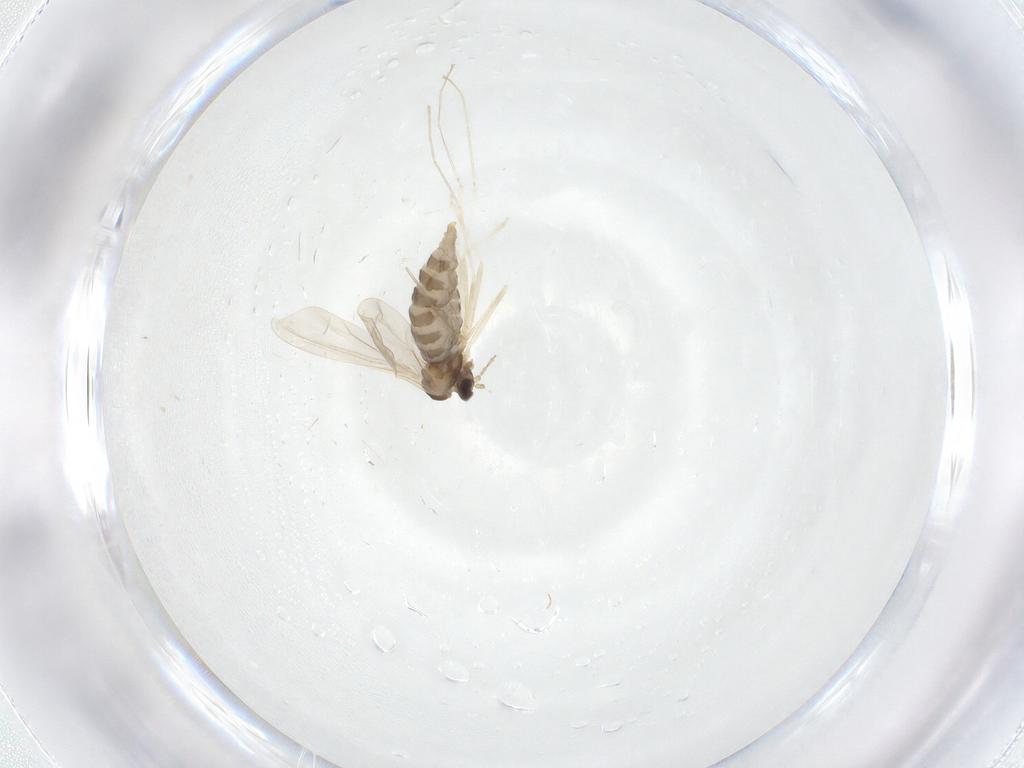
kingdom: Animalia
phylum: Arthropoda
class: Insecta
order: Diptera
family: Cecidomyiidae
